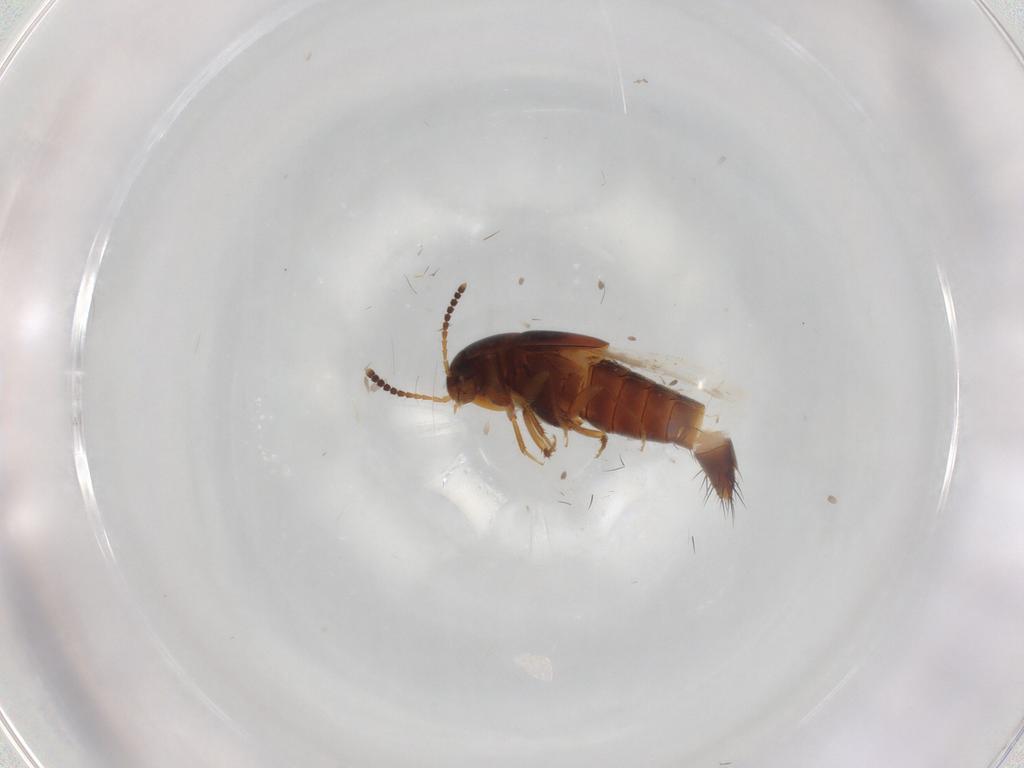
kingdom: Animalia
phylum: Arthropoda
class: Insecta
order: Coleoptera
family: Staphylinidae
